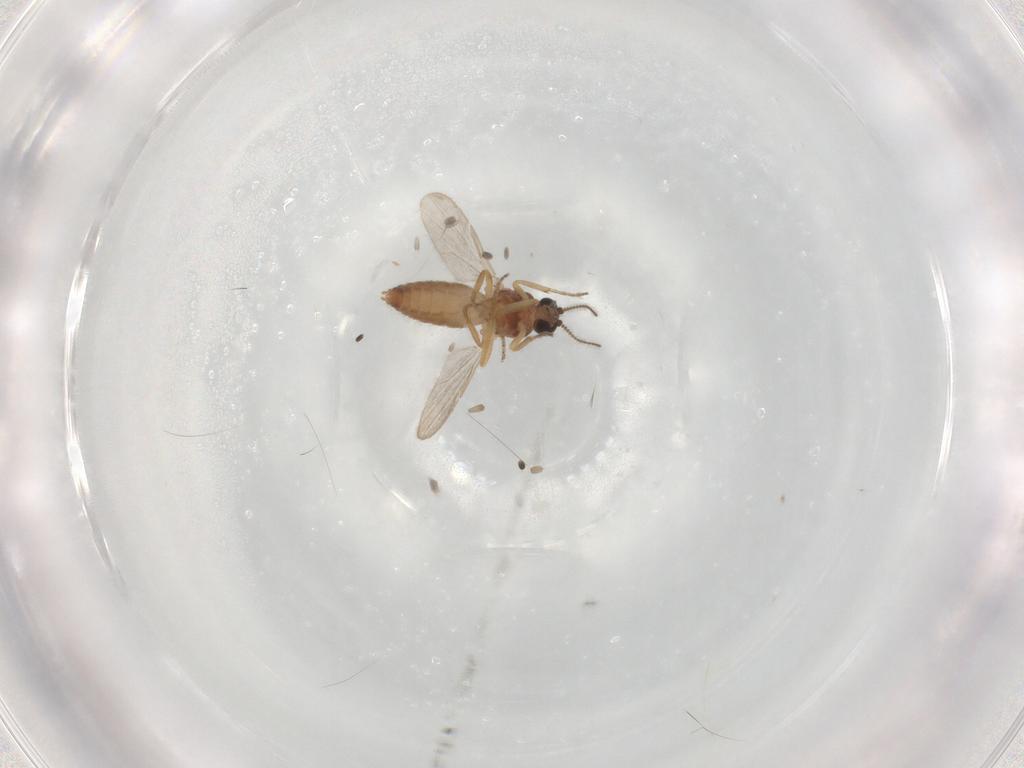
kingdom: Animalia
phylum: Arthropoda
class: Insecta
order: Diptera
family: Ceratopogonidae
